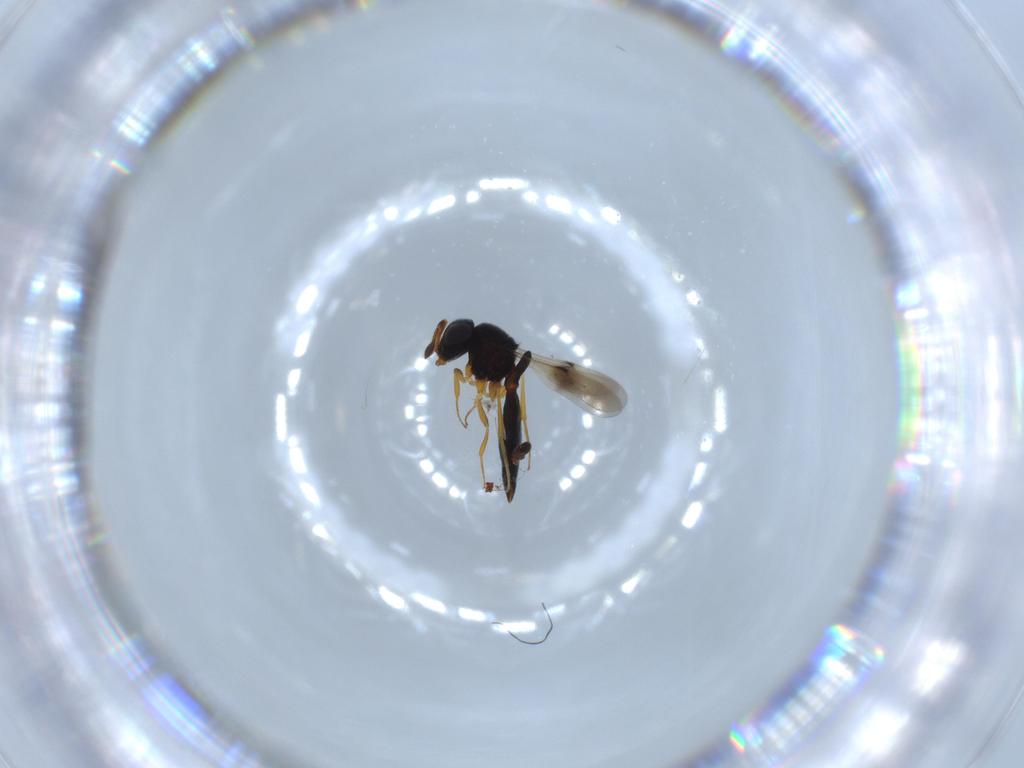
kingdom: Animalia
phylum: Arthropoda
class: Insecta
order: Hymenoptera
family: Scelionidae
